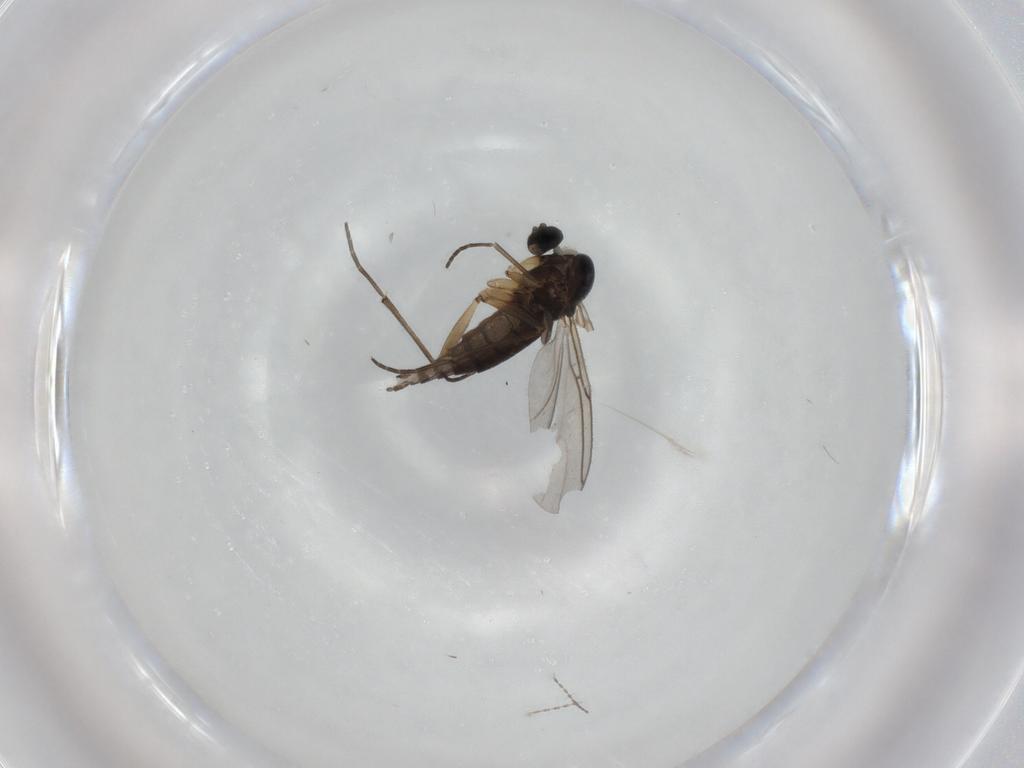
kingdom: Animalia
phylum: Arthropoda
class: Insecta
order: Diptera
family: Sciaridae
